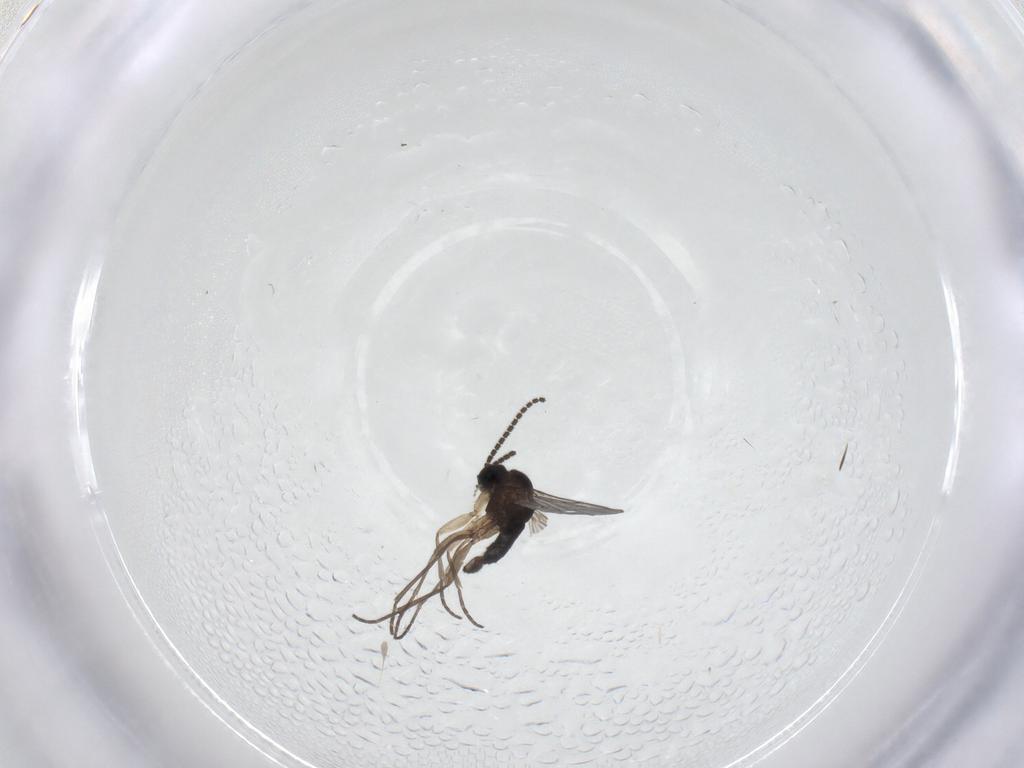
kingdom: Animalia
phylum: Arthropoda
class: Insecta
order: Diptera
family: Sciaridae
